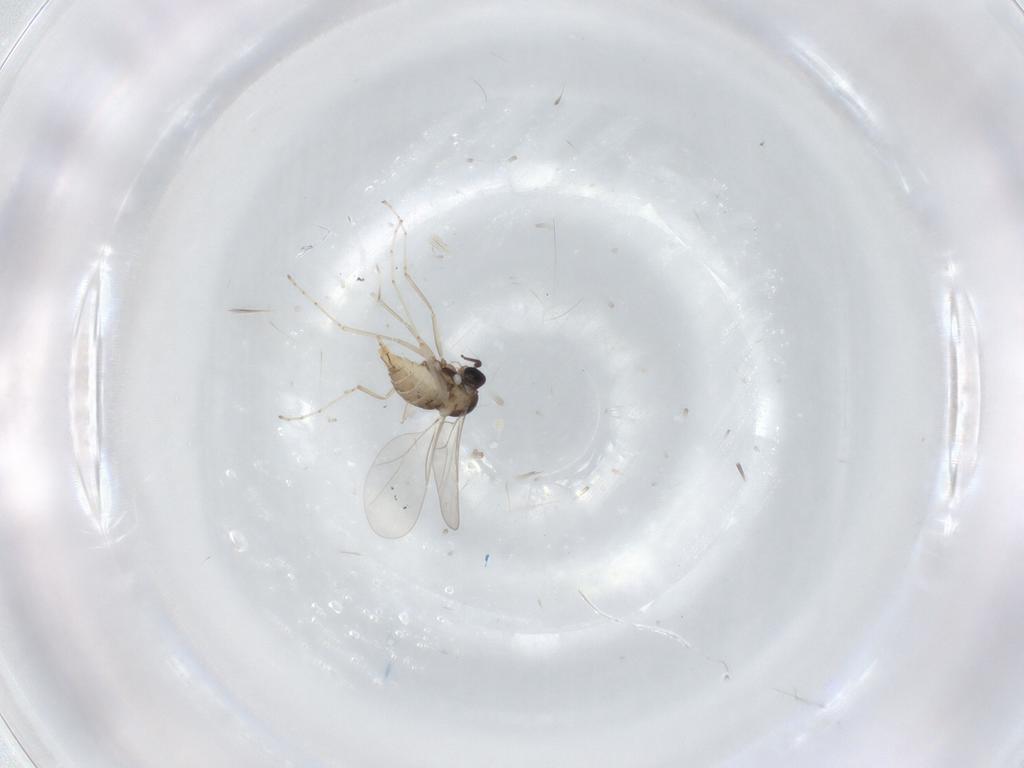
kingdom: Animalia
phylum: Arthropoda
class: Insecta
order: Diptera
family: Cecidomyiidae
